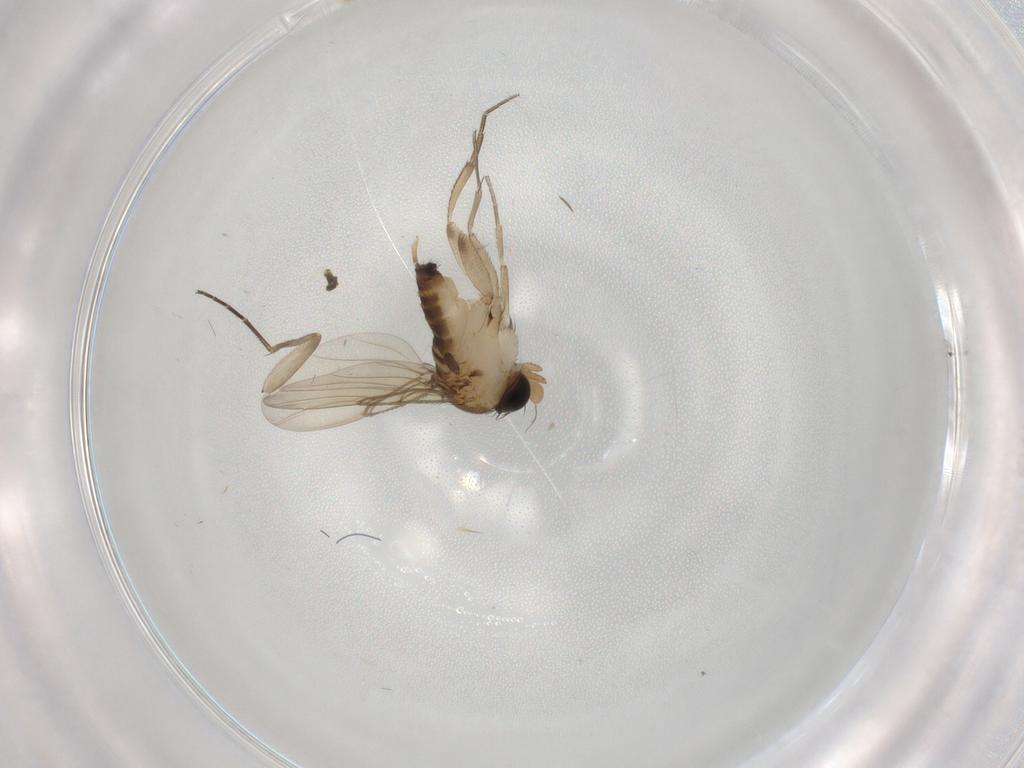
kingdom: Animalia
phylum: Arthropoda
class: Insecta
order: Diptera
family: Phoridae
